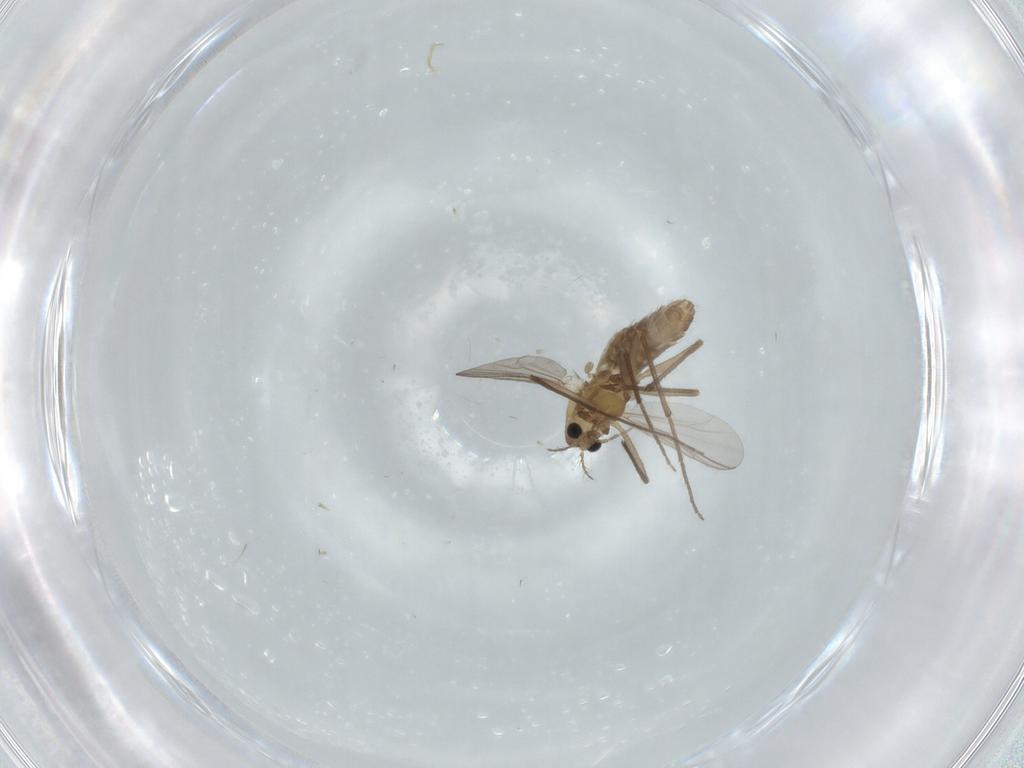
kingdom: Animalia
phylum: Arthropoda
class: Insecta
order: Diptera
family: Chironomidae
